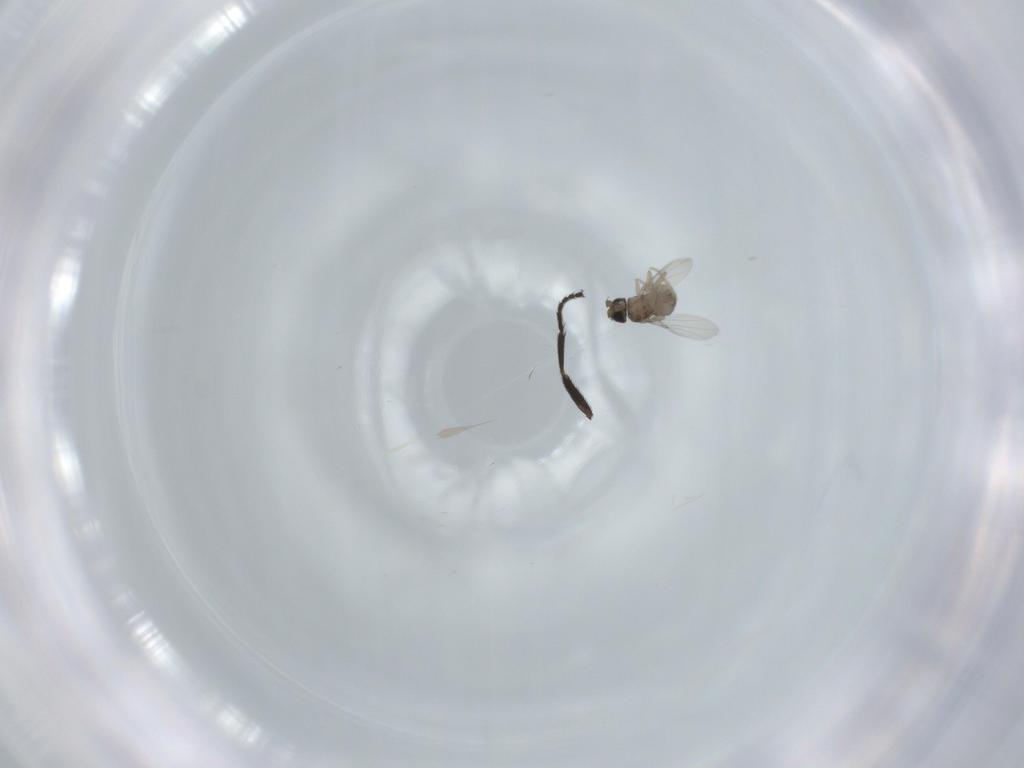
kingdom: Animalia
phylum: Arthropoda
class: Insecta
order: Diptera
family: Milichiidae
